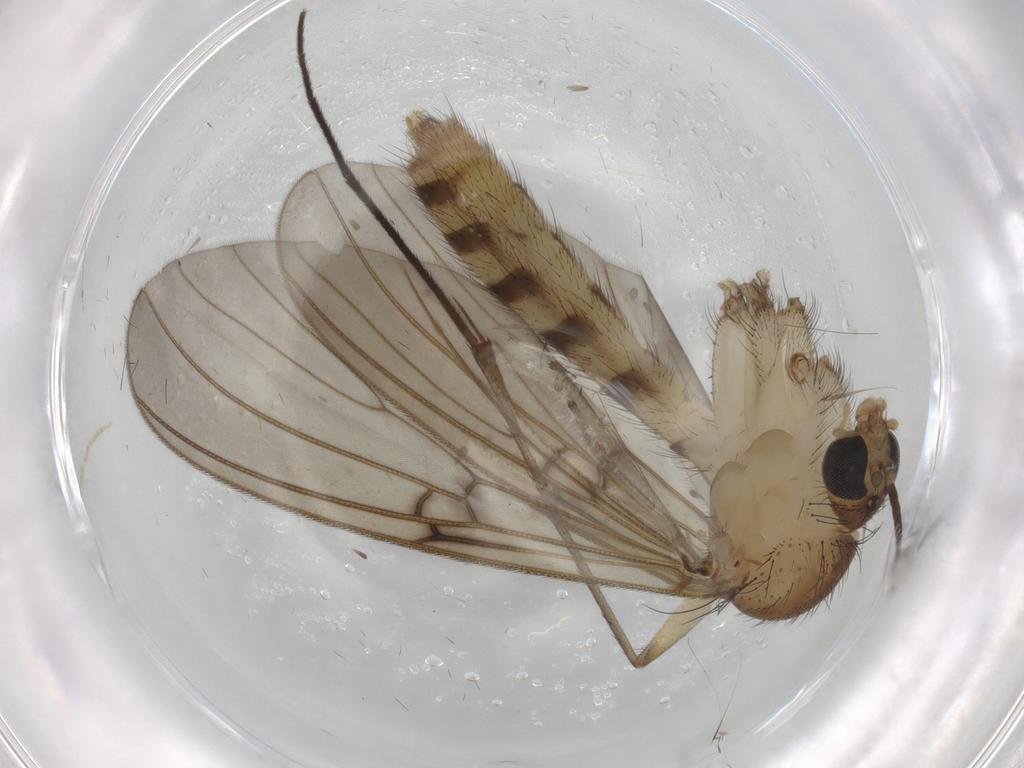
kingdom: Animalia
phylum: Arthropoda
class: Insecta
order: Diptera
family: Mycetophilidae
